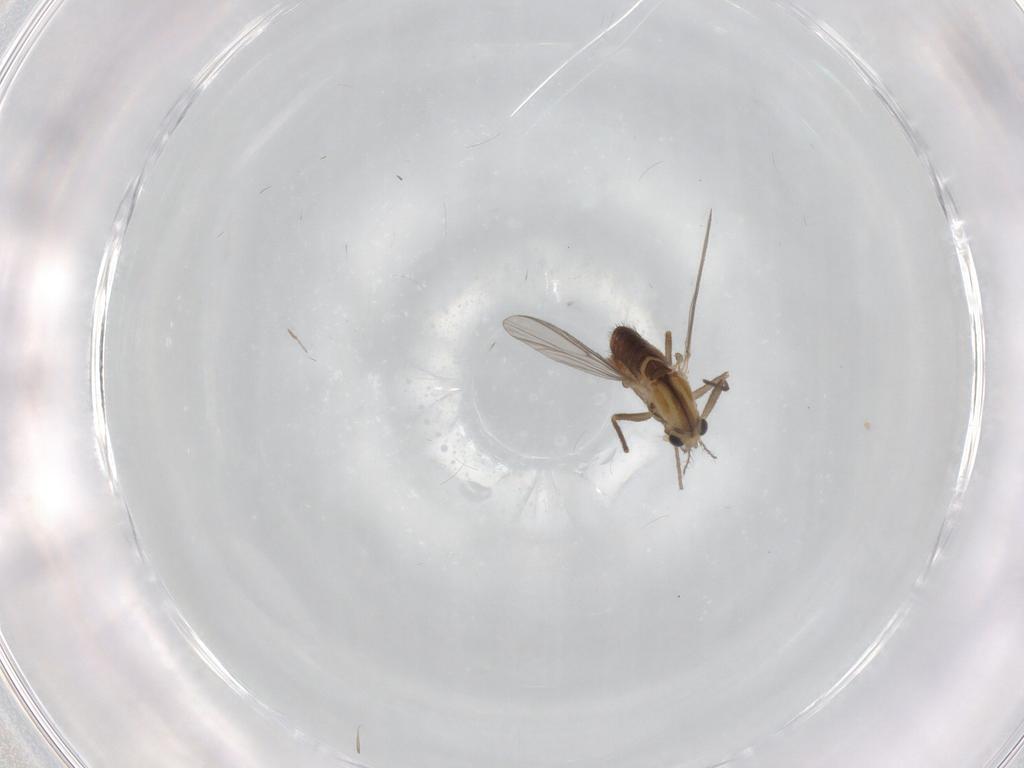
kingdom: Animalia
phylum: Arthropoda
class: Insecta
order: Diptera
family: Chironomidae
